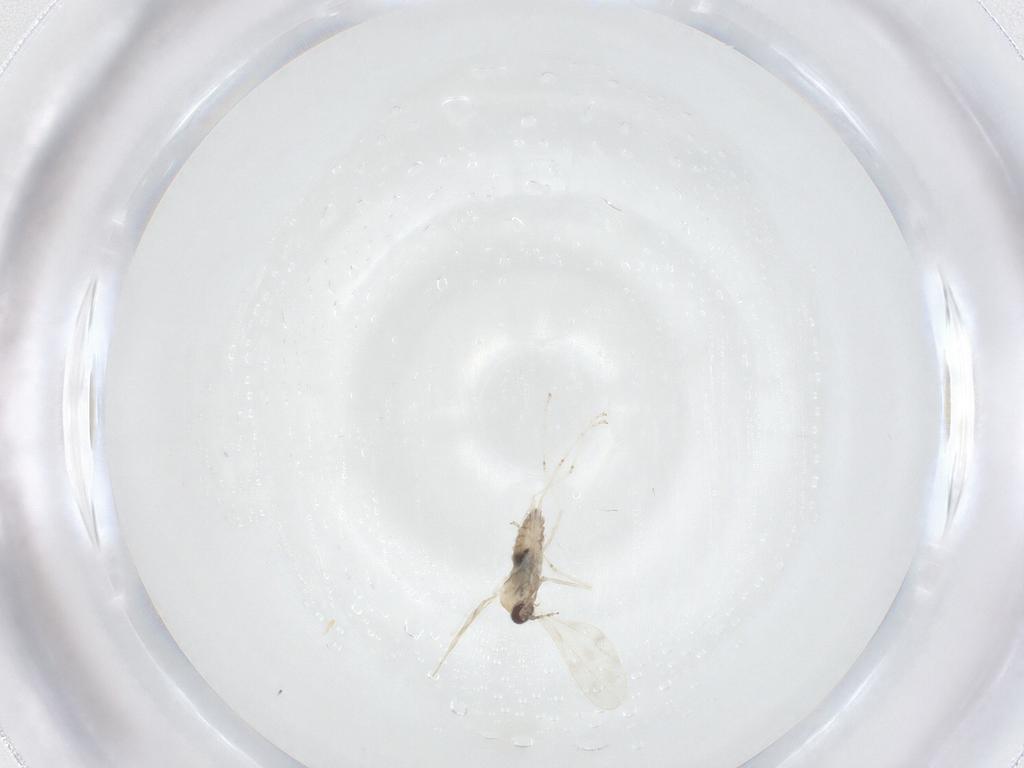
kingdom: Animalia
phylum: Arthropoda
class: Insecta
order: Diptera
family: Cecidomyiidae
